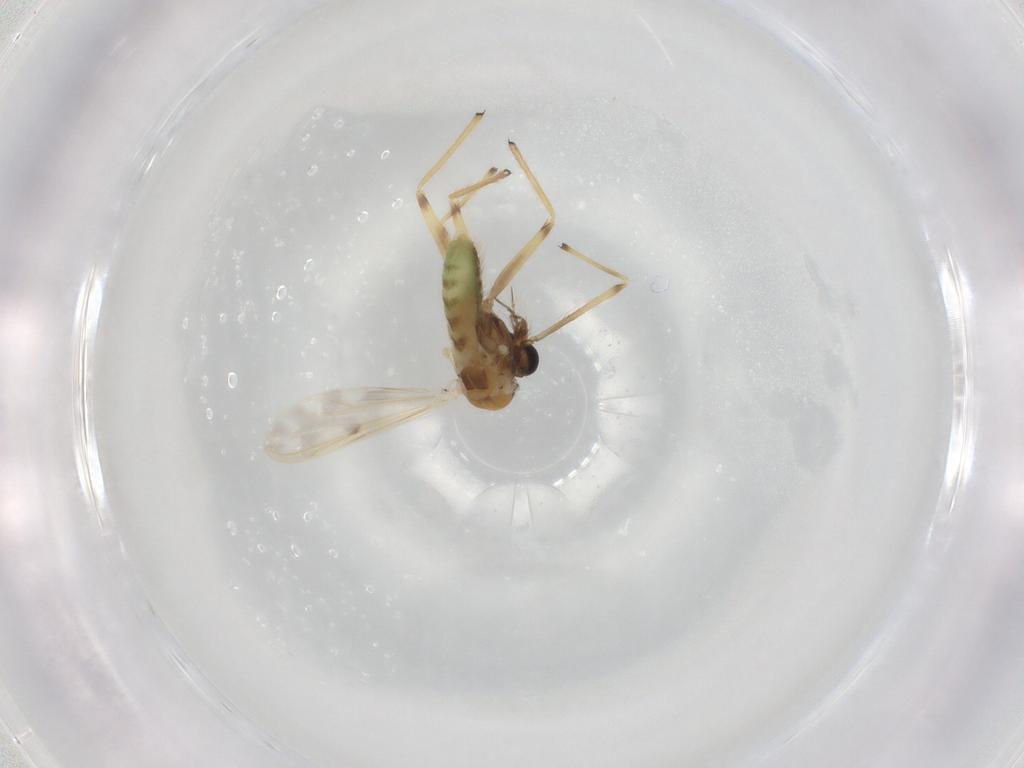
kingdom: Animalia
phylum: Arthropoda
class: Insecta
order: Diptera
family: Chironomidae
